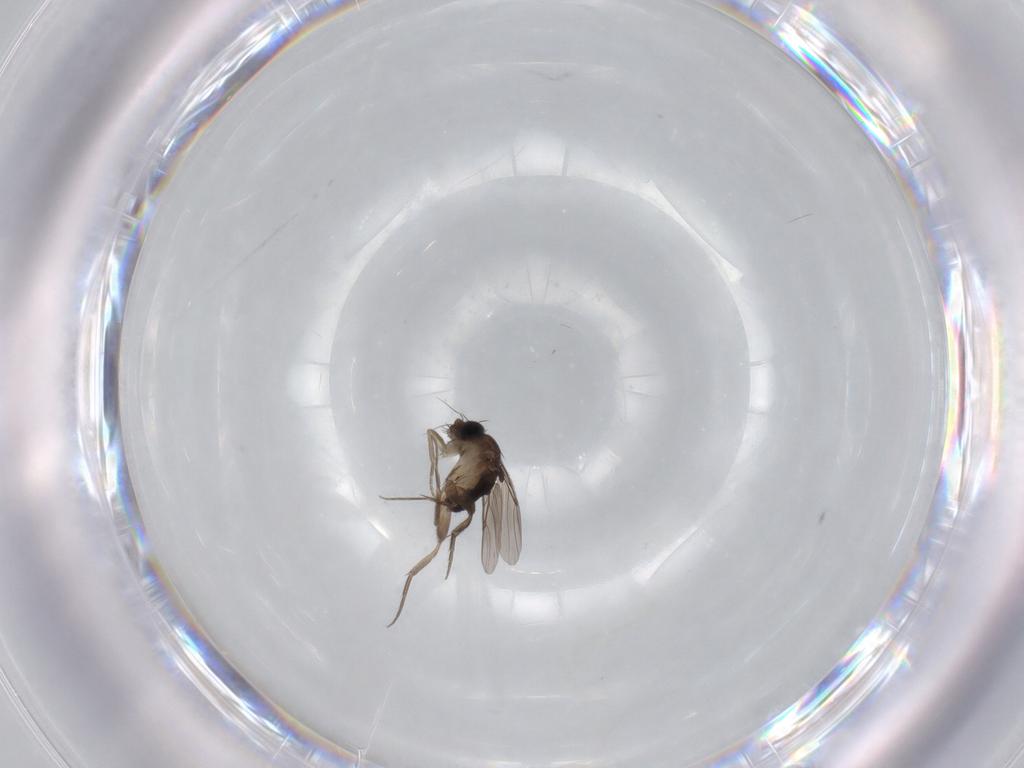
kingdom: Animalia
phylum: Arthropoda
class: Insecta
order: Diptera
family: Phoridae
